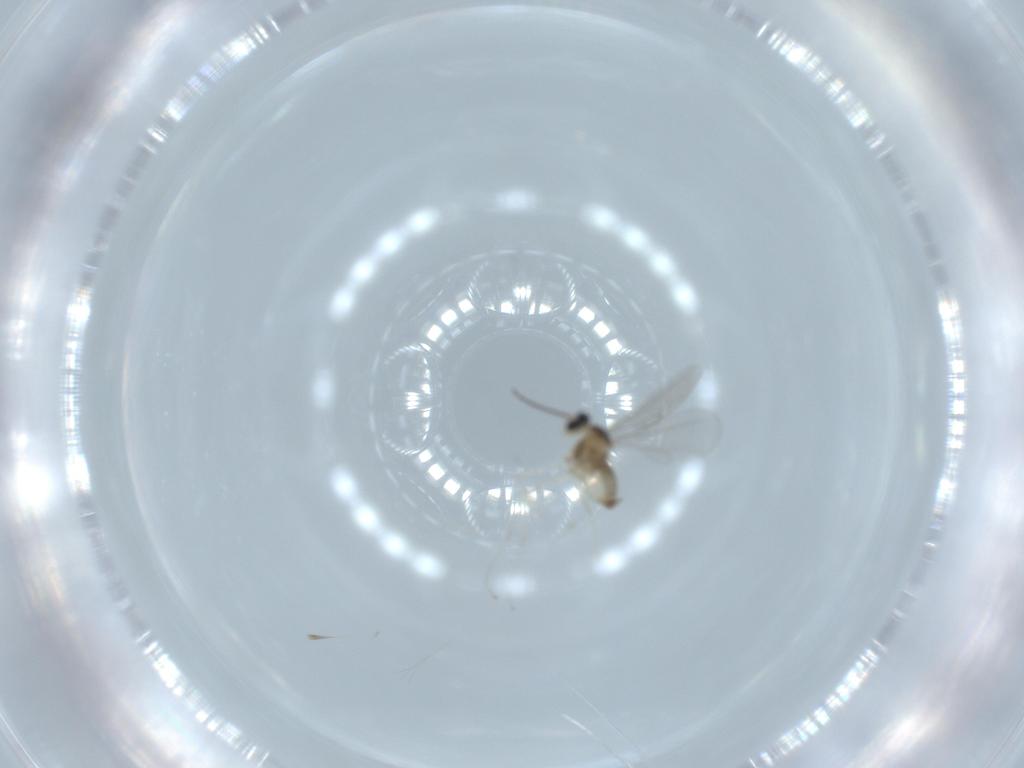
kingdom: Animalia
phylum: Arthropoda
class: Insecta
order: Diptera
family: Cecidomyiidae
